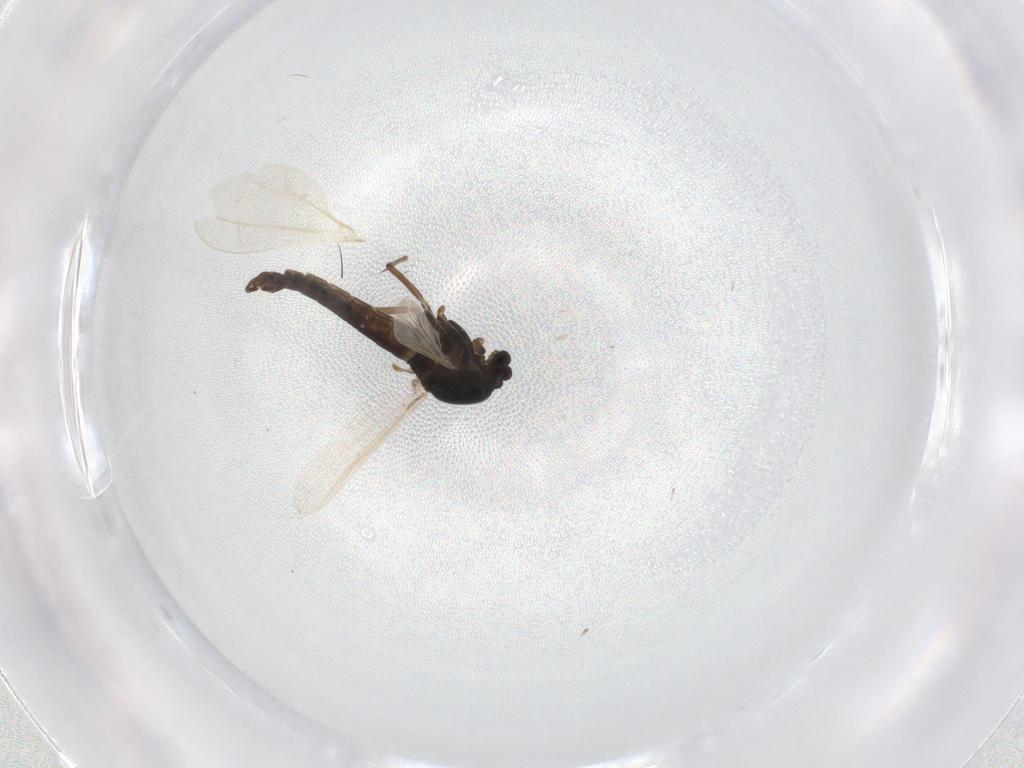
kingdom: Animalia
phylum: Arthropoda
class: Insecta
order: Diptera
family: Chironomidae
